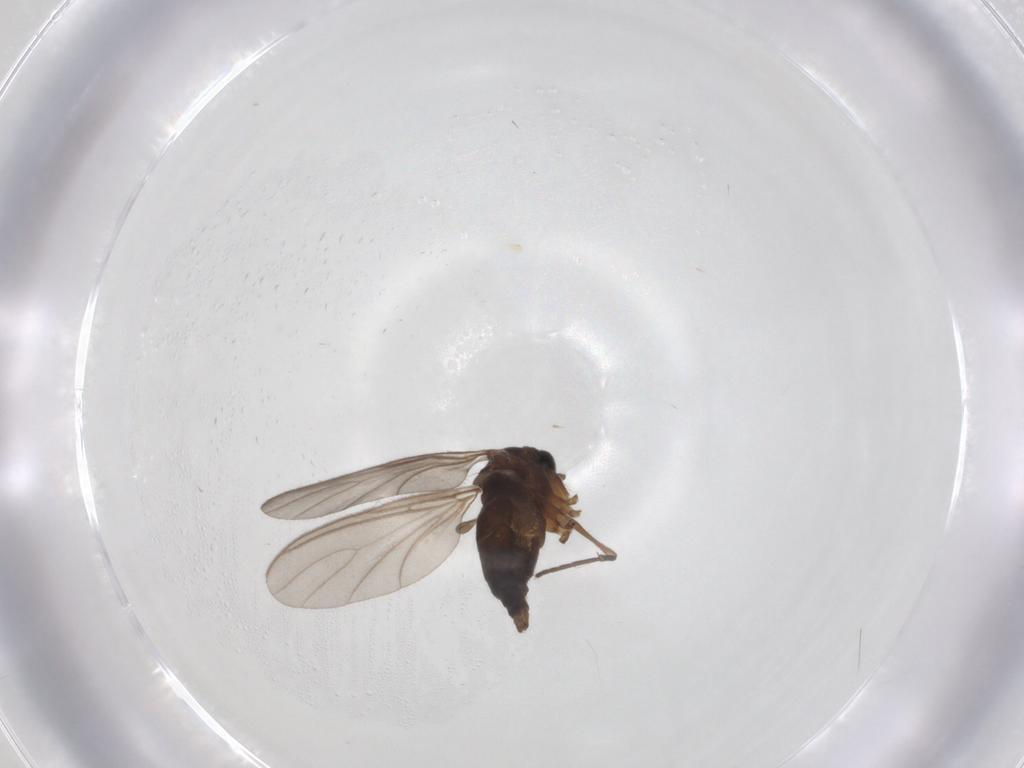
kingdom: Animalia
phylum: Arthropoda
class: Insecta
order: Diptera
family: Sciaridae
